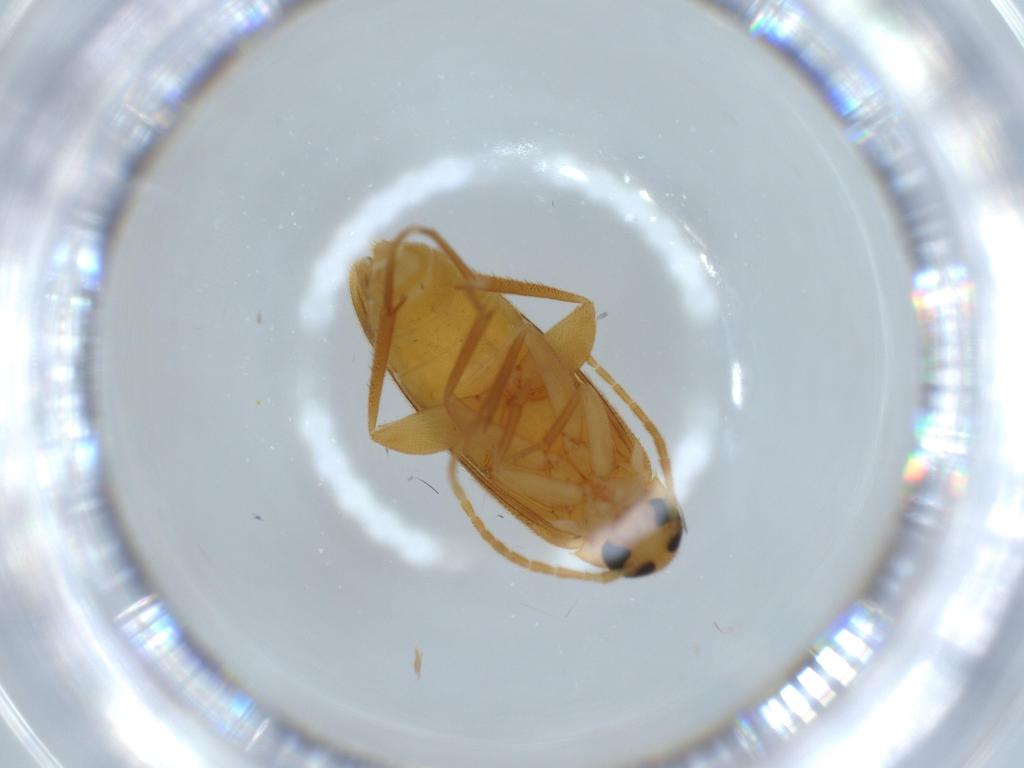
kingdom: Animalia
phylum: Arthropoda
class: Insecta
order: Coleoptera
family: Scraptiidae
